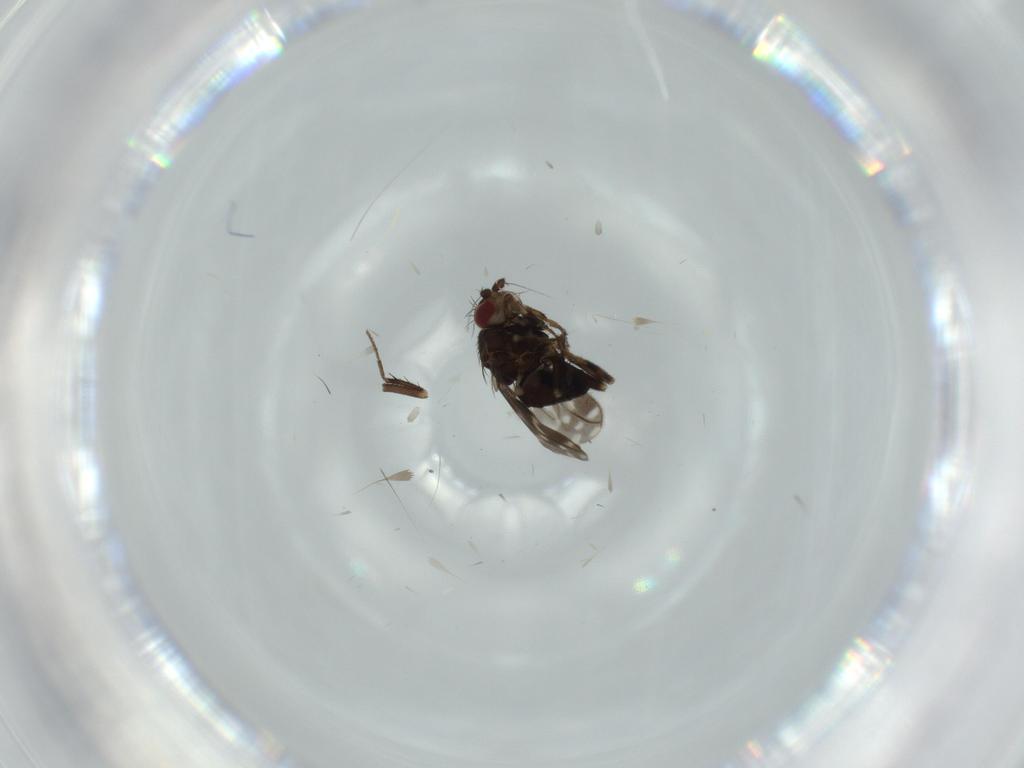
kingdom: Animalia
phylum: Arthropoda
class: Insecta
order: Diptera
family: Sphaeroceridae
